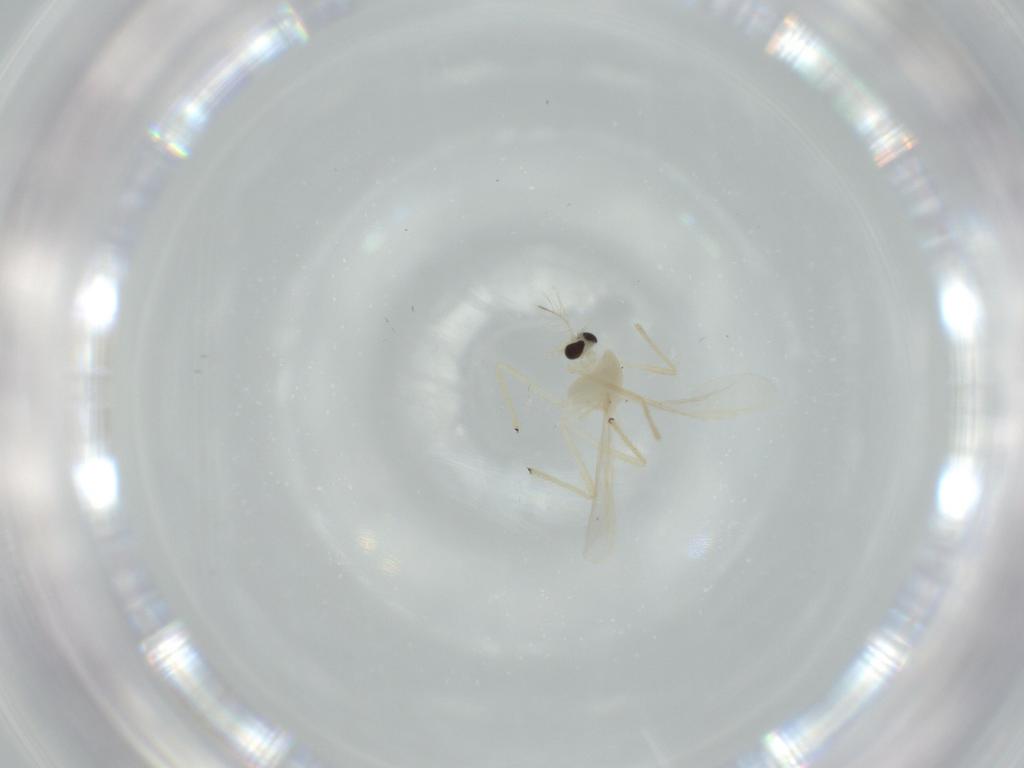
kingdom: Animalia
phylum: Arthropoda
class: Insecta
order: Diptera
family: Chironomidae
